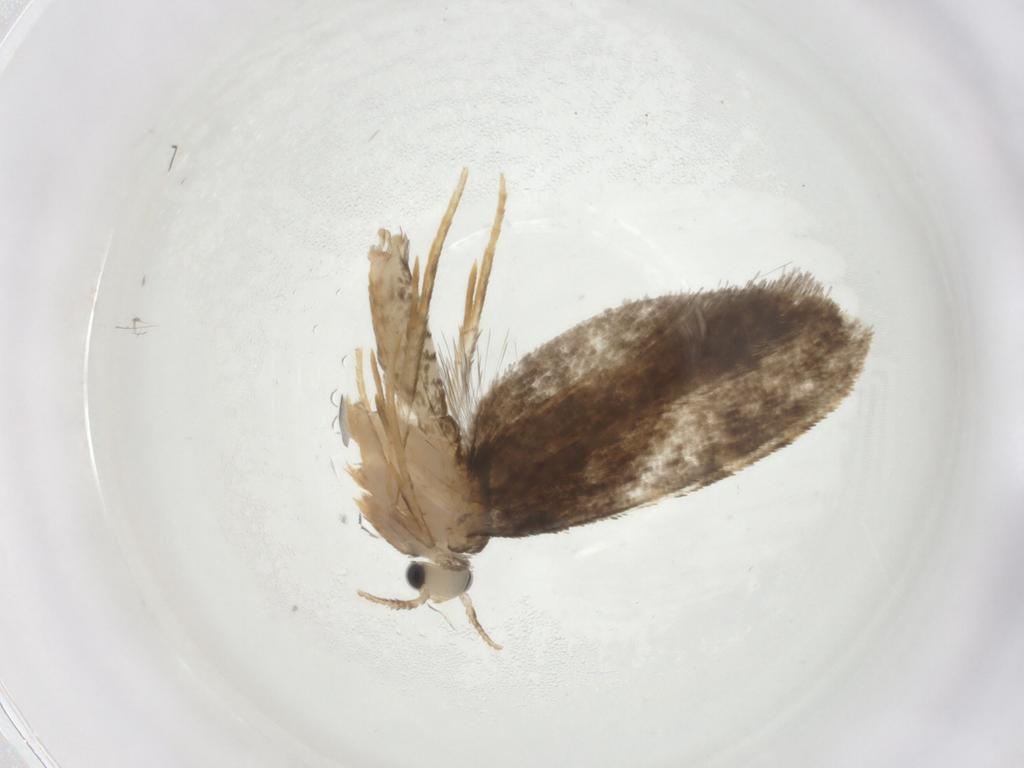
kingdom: Animalia
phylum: Arthropoda
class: Insecta
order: Lepidoptera
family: Psychidae
